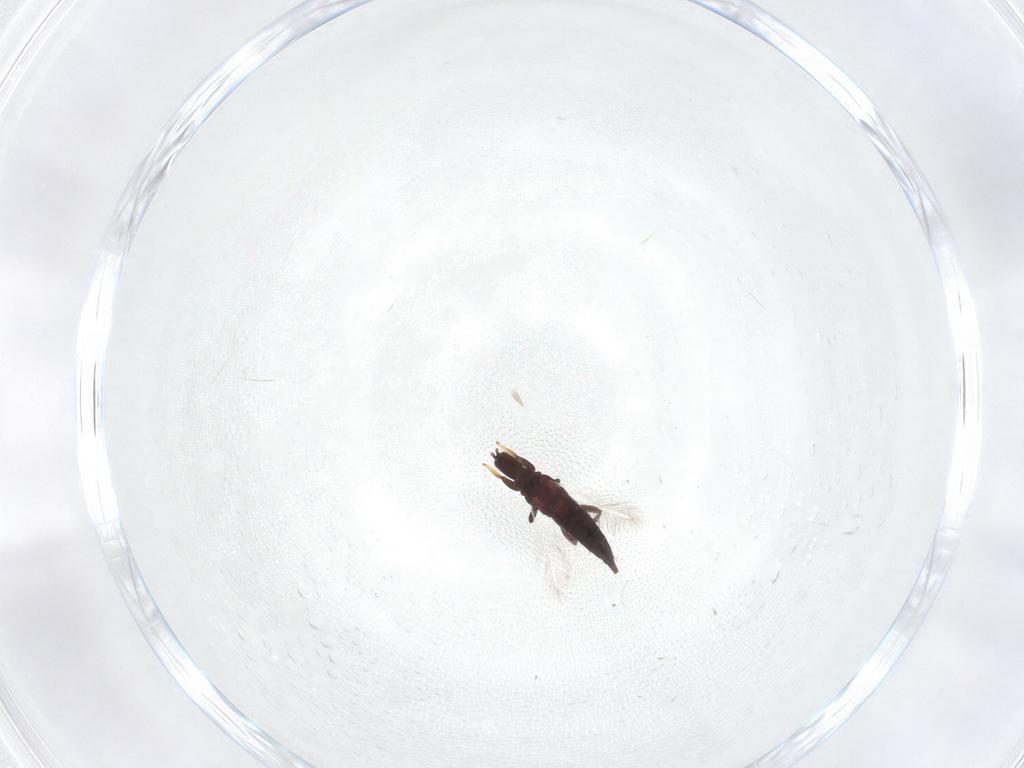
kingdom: Animalia
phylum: Arthropoda
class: Insecta
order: Thysanoptera
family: Phlaeothripidae
